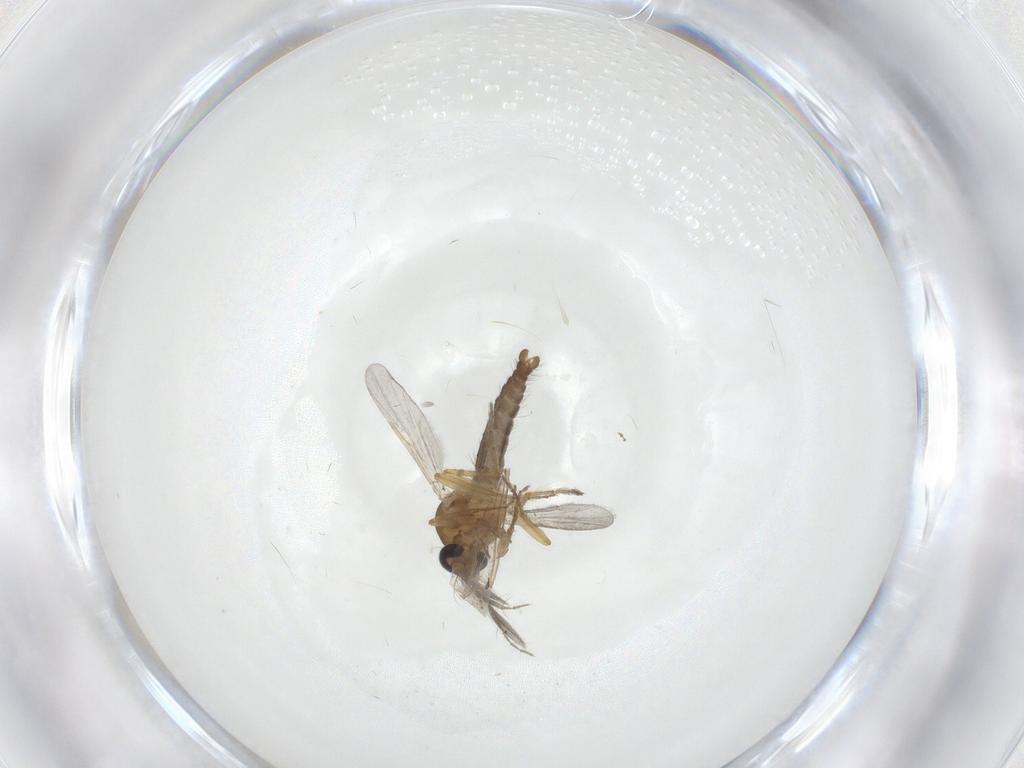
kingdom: Animalia
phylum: Arthropoda
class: Insecta
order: Diptera
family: Ceratopogonidae
